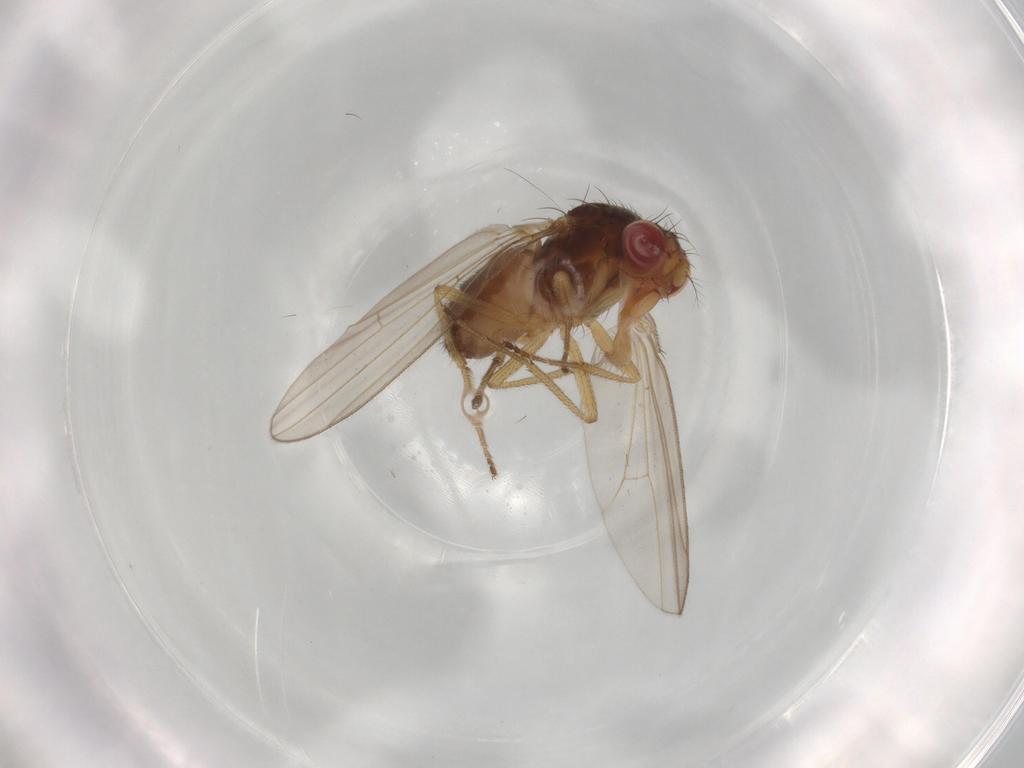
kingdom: Animalia
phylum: Arthropoda
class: Insecta
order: Diptera
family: Drosophilidae
